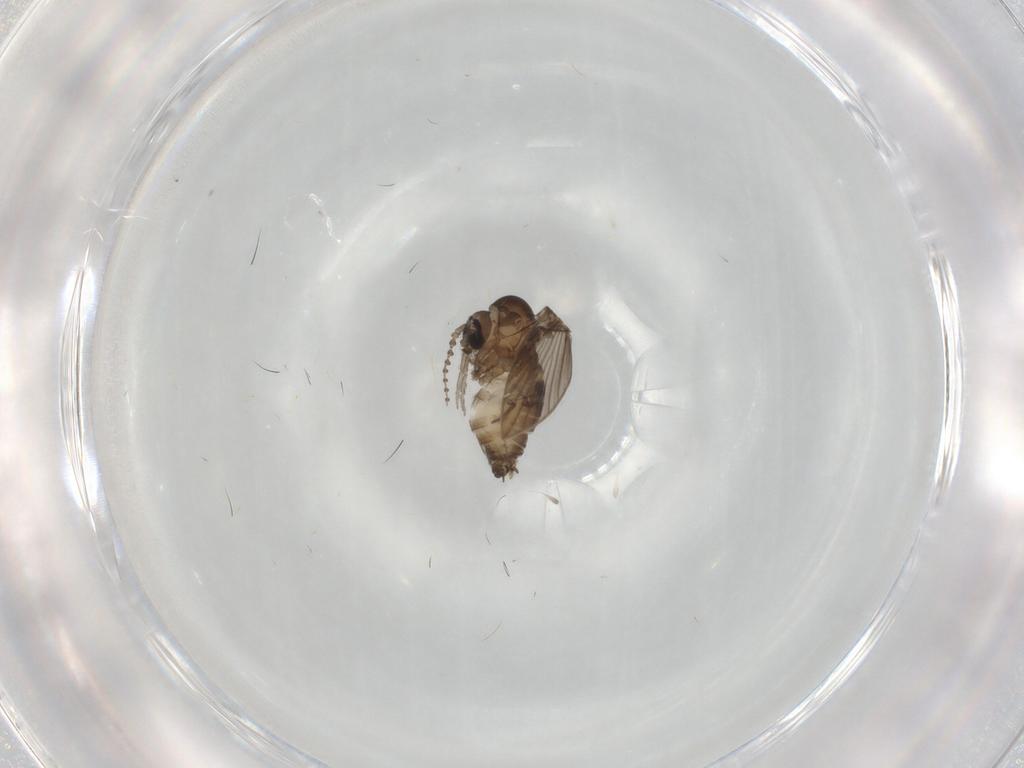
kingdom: Animalia
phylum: Arthropoda
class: Insecta
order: Diptera
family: Psychodidae
